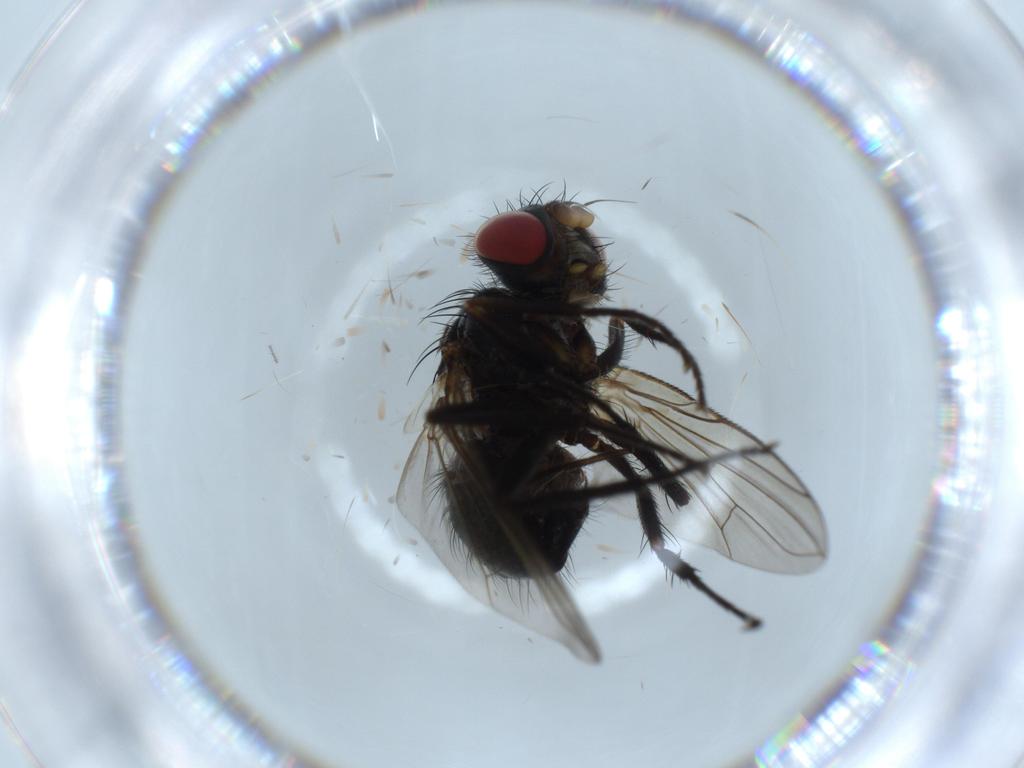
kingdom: Animalia
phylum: Arthropoda
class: Insecta
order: Diptera
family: Tachinidae
